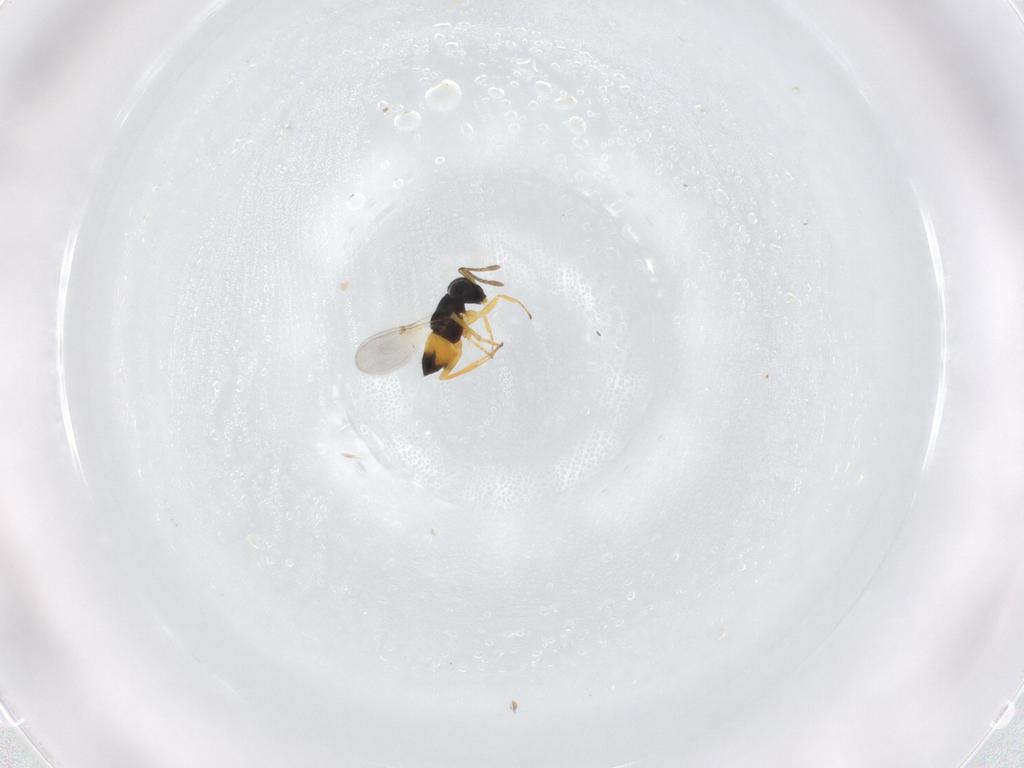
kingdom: Animalia
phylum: Arthropoda
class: Insecta
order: Hymenoptera
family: Encyrtidae
